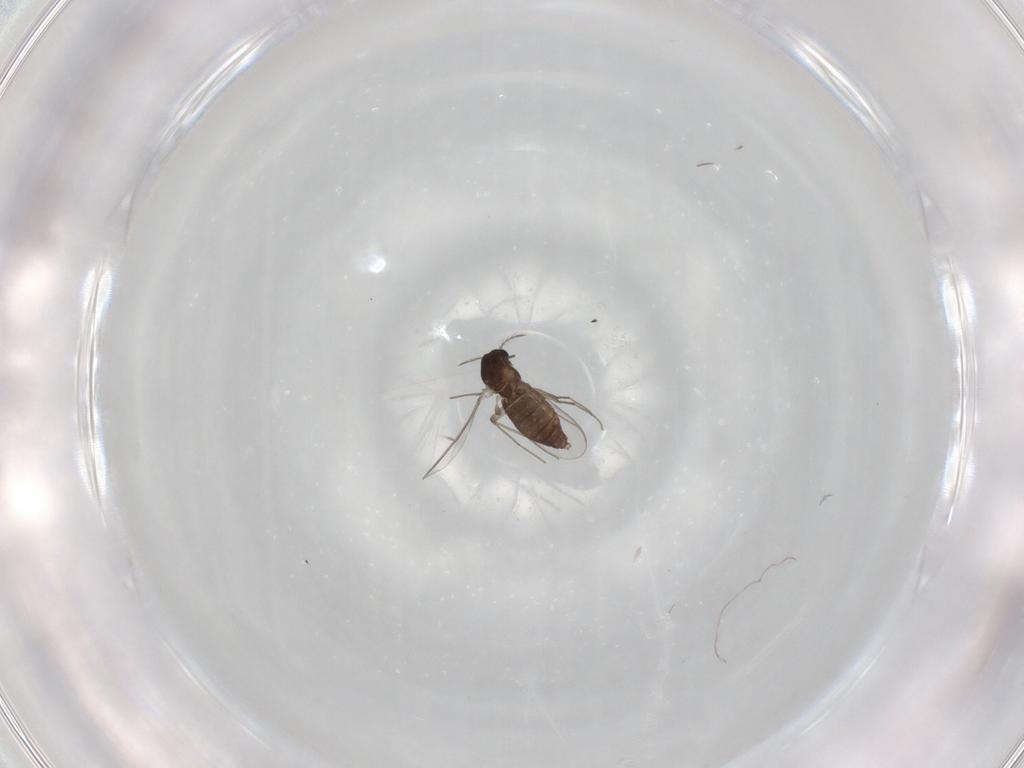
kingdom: Animalia
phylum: Arthropoda
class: Insecta
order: Diptera
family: Chironomidae
